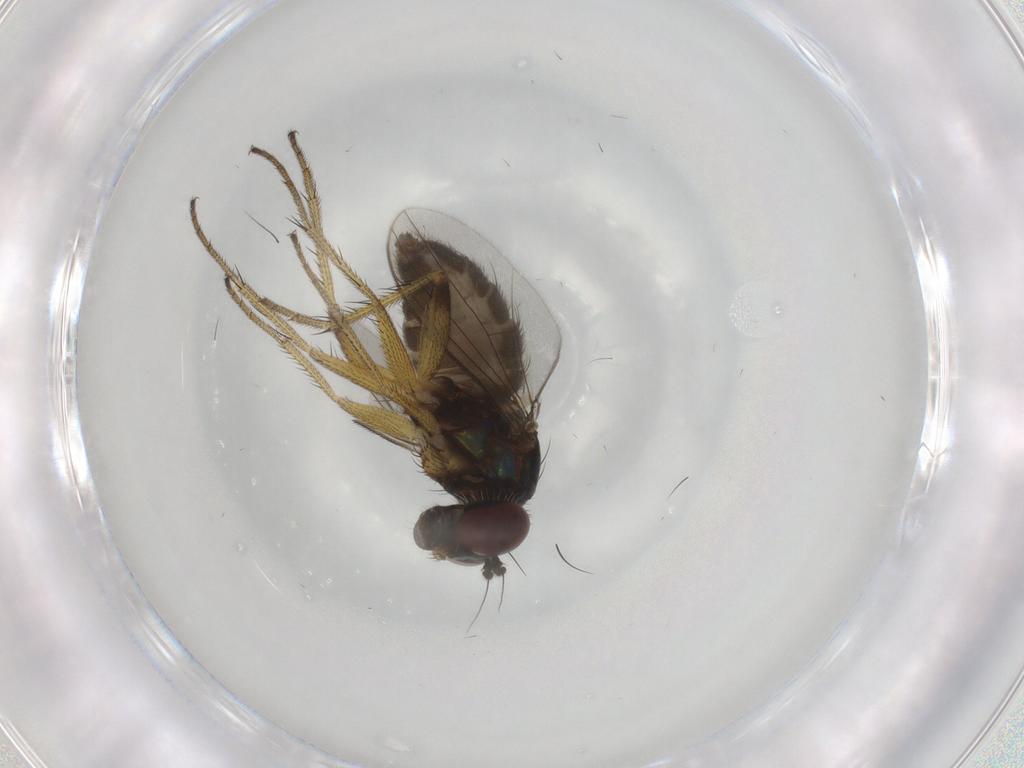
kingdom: Animalia
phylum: Arthropoda
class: Insecta
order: Diptera
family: Dolichopodidae
